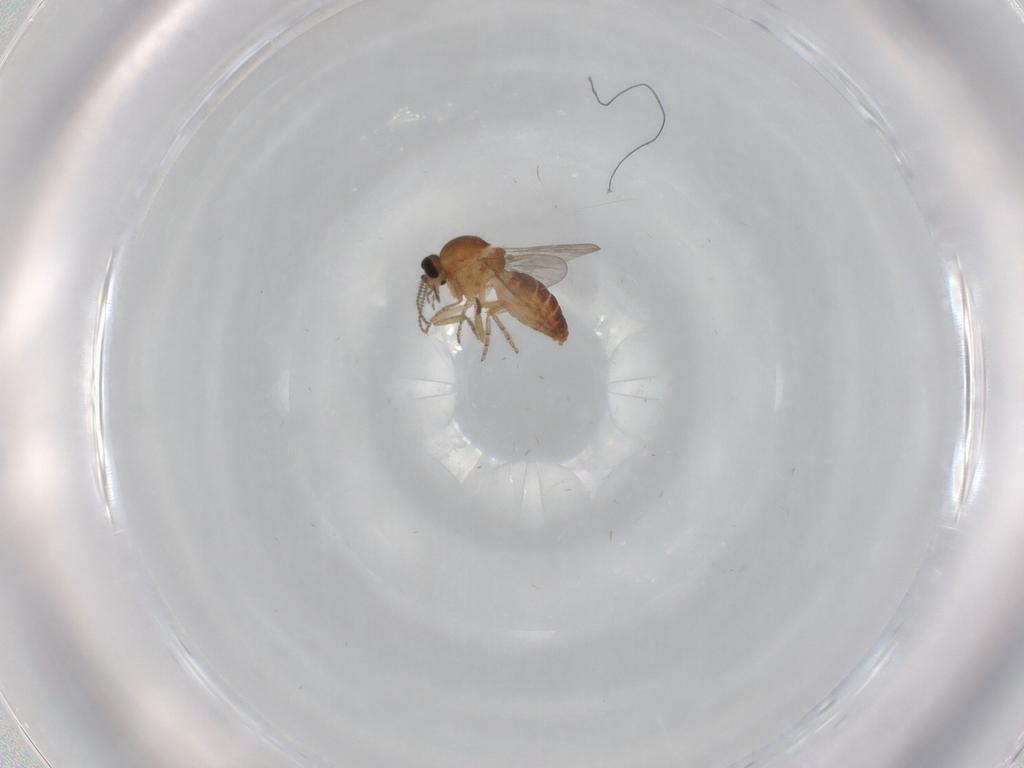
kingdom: Animalia
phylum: Arthropoda
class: Insecta
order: Diptera
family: Ceratopogonidae
